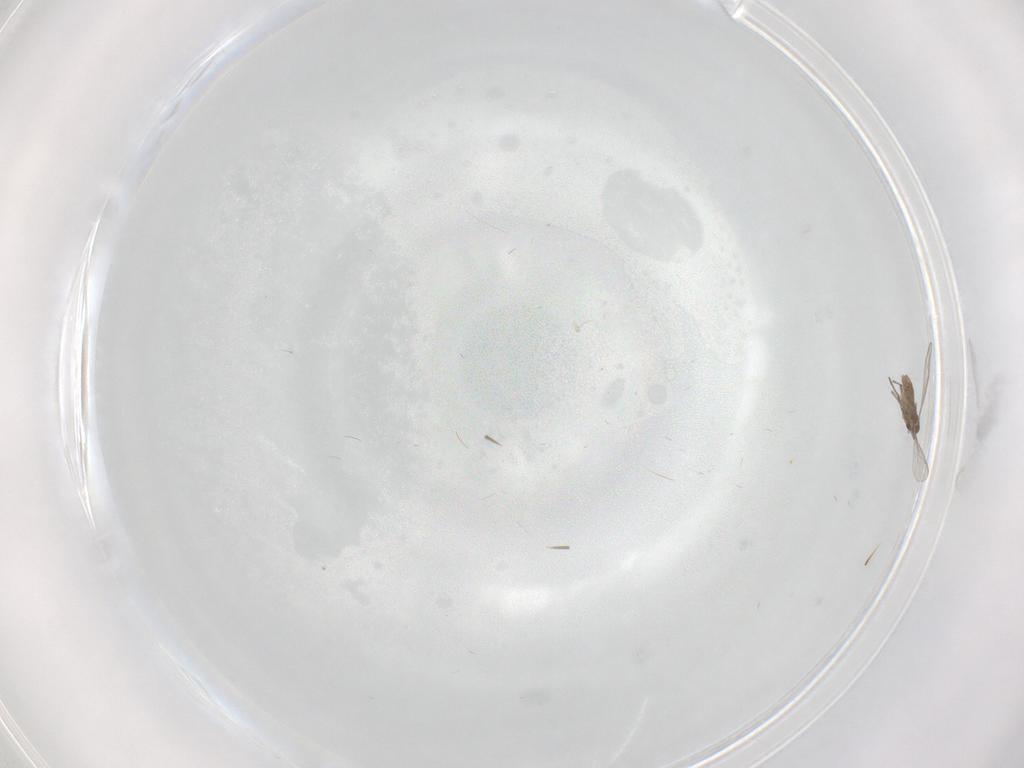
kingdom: Animalia
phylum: Arthropoda
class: Insecta
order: Diptera
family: Chironomidae
